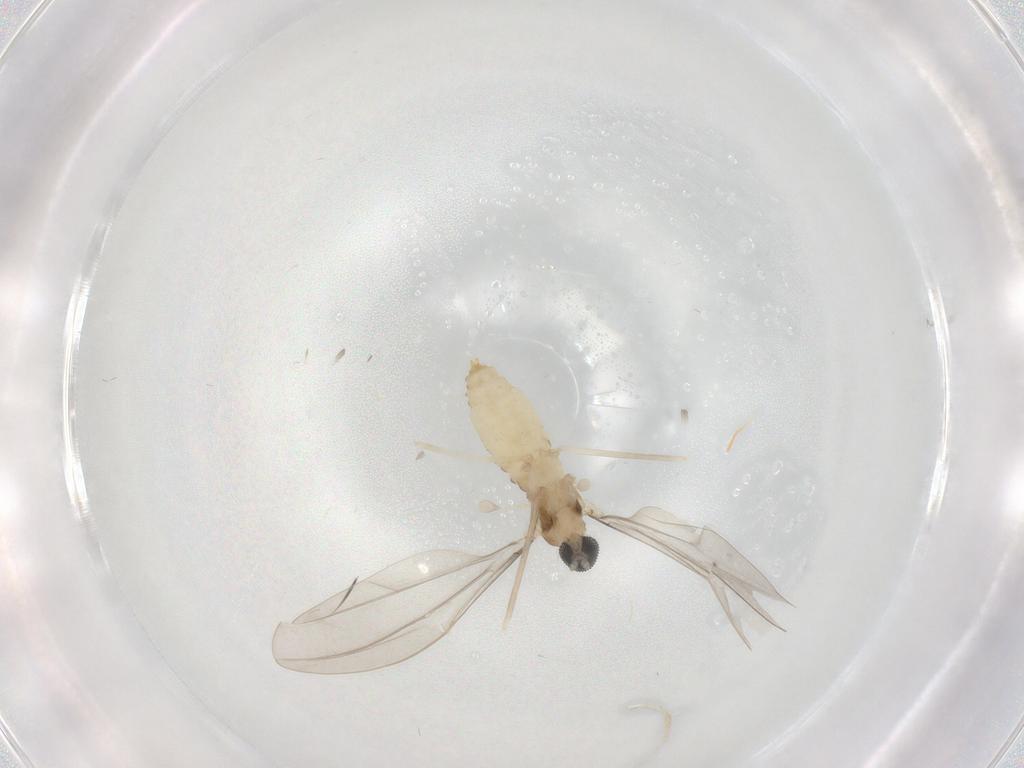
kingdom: Animalia
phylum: Arthropoda
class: Insecta
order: Diptera
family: Cecidomyiidae
